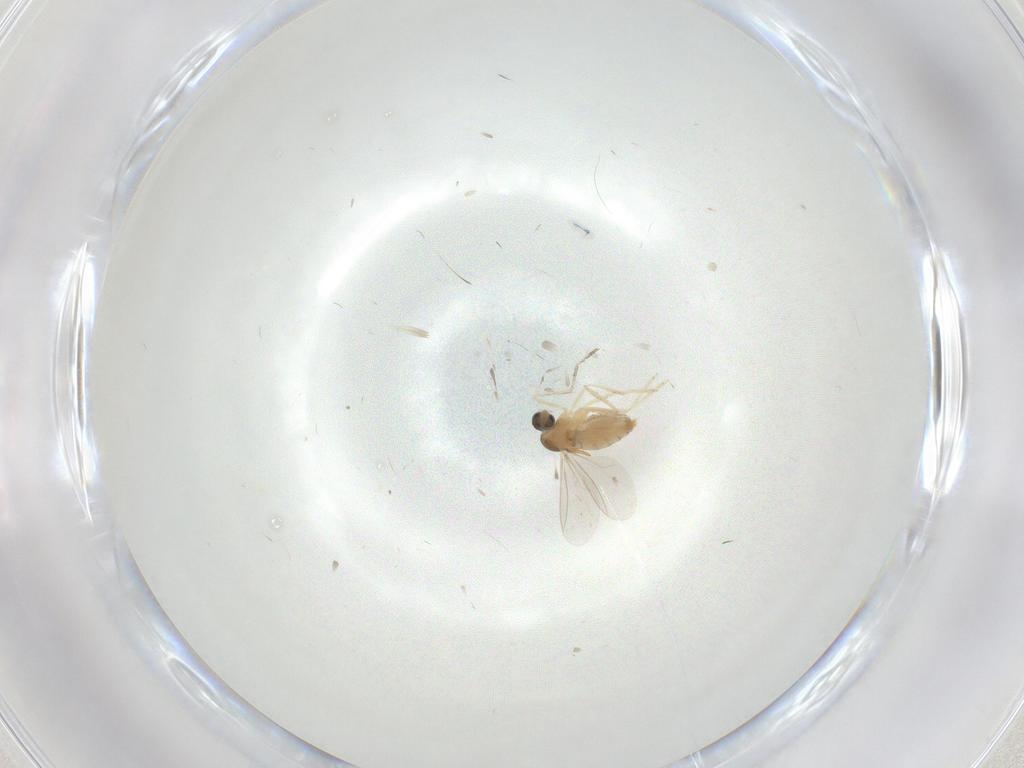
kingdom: Animalia
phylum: Arthropoda
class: Insecta
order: Diptera
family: Cecidomyiidae
